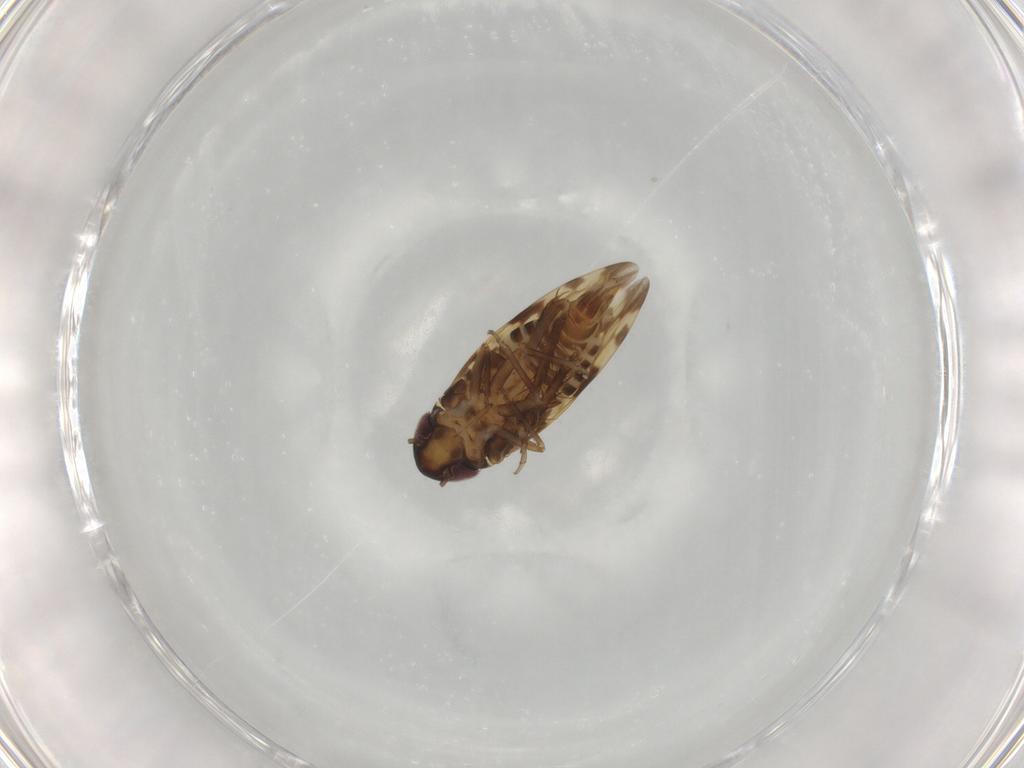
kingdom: Animalia
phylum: Arthropoda
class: Insecta
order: Hemiptera
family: Cicadellidae
